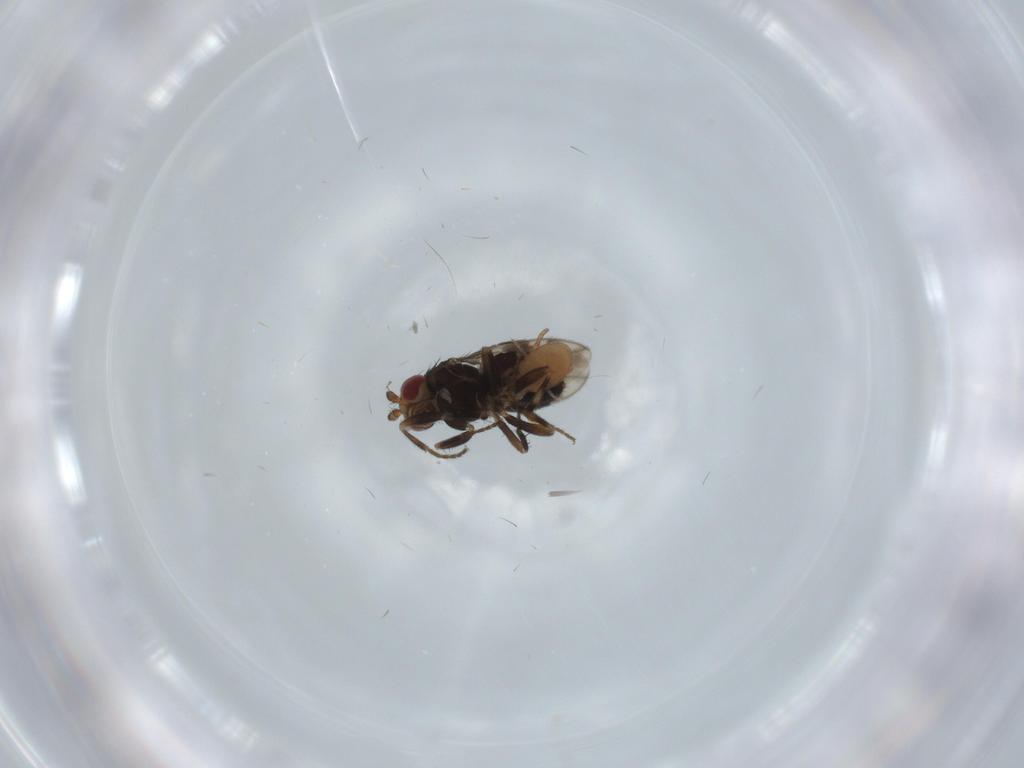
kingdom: Animalia
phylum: Arthropoda
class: Insecta
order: Diptera
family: Sphaeroceridae
